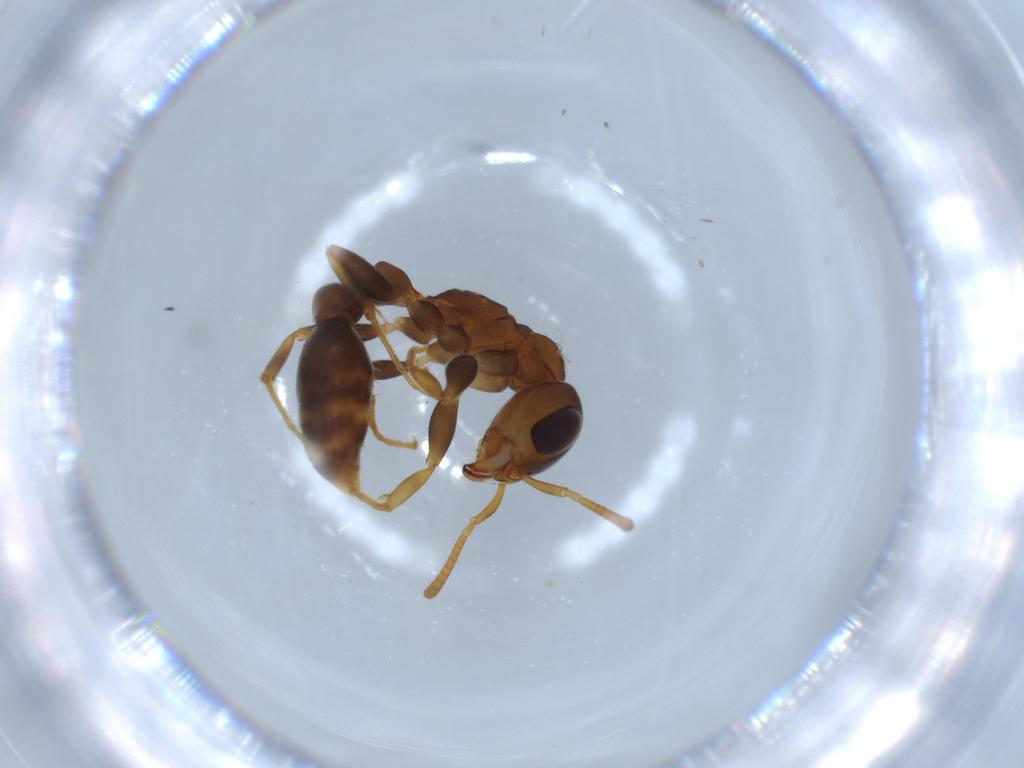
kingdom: Animalia
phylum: Arthropoda
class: Insecta
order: Hymenoptera
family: Formicidae
